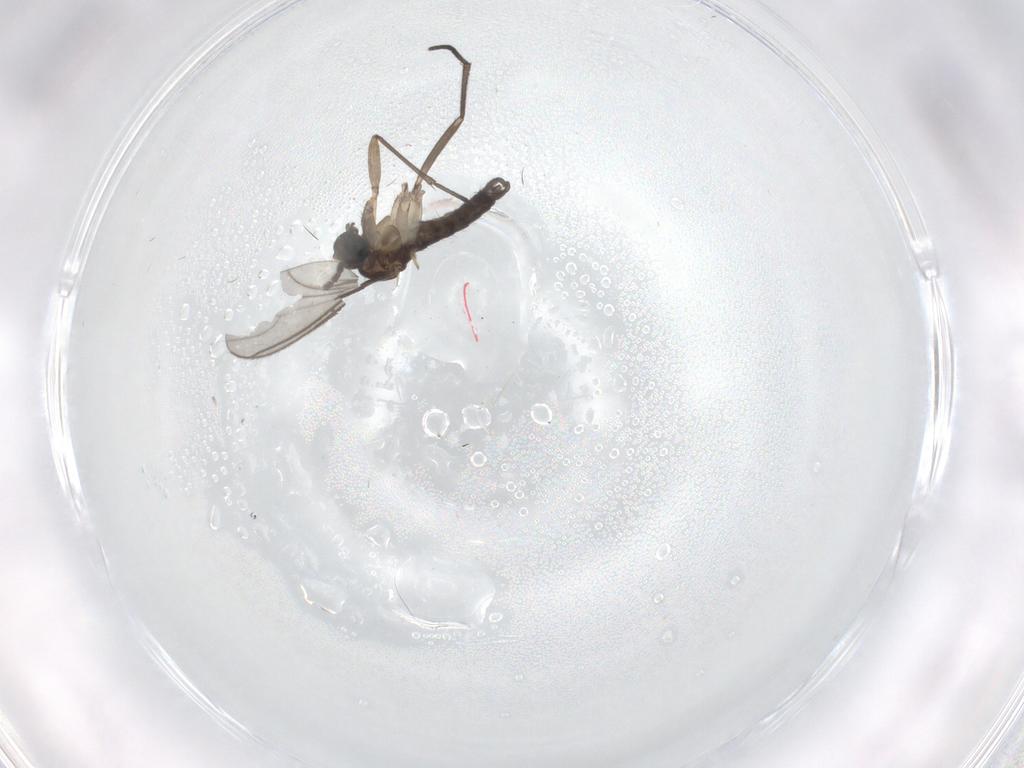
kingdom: Animalia
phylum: Arthropoda
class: Insecta
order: Diptera
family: Sciaridae
